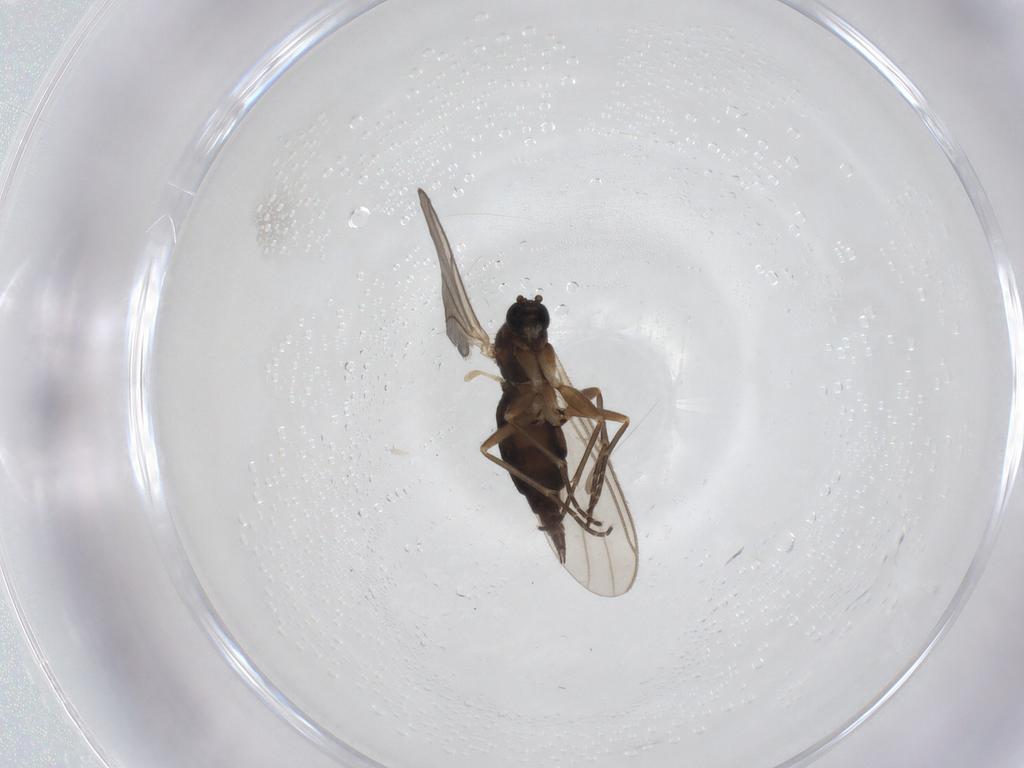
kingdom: Animalia
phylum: Arthropoda
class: Insecta
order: Diptera
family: Sciaridae
